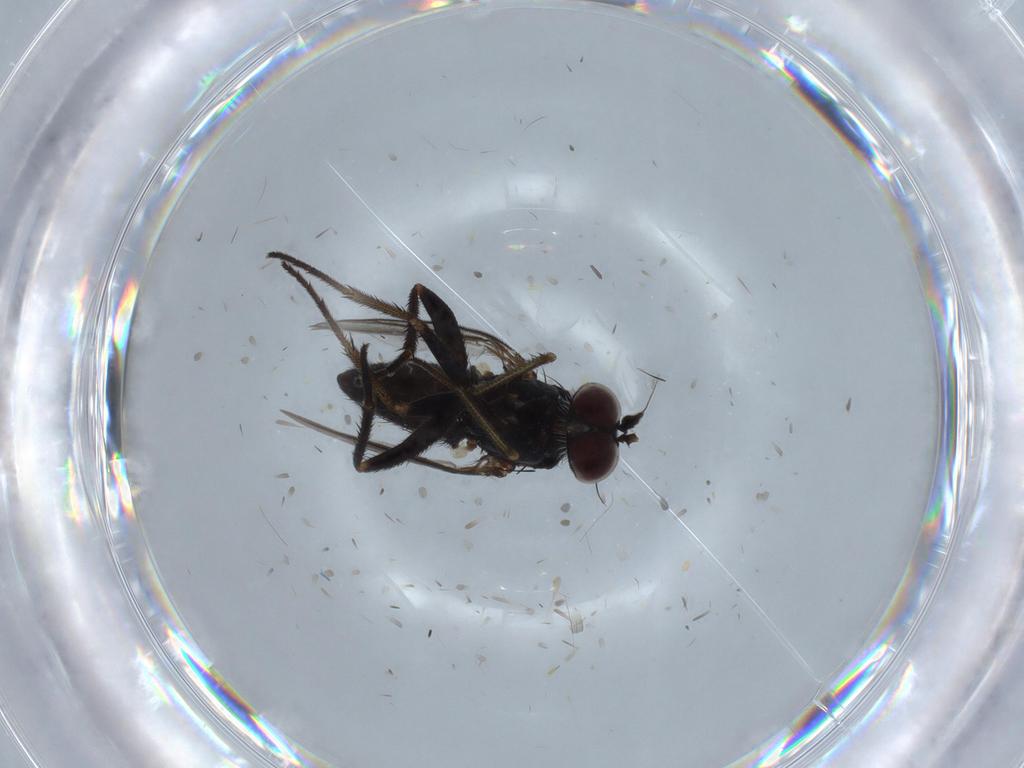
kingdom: Animalia
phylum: Arthropoda
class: Insecta
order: Diptera
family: Dolichopodidae
